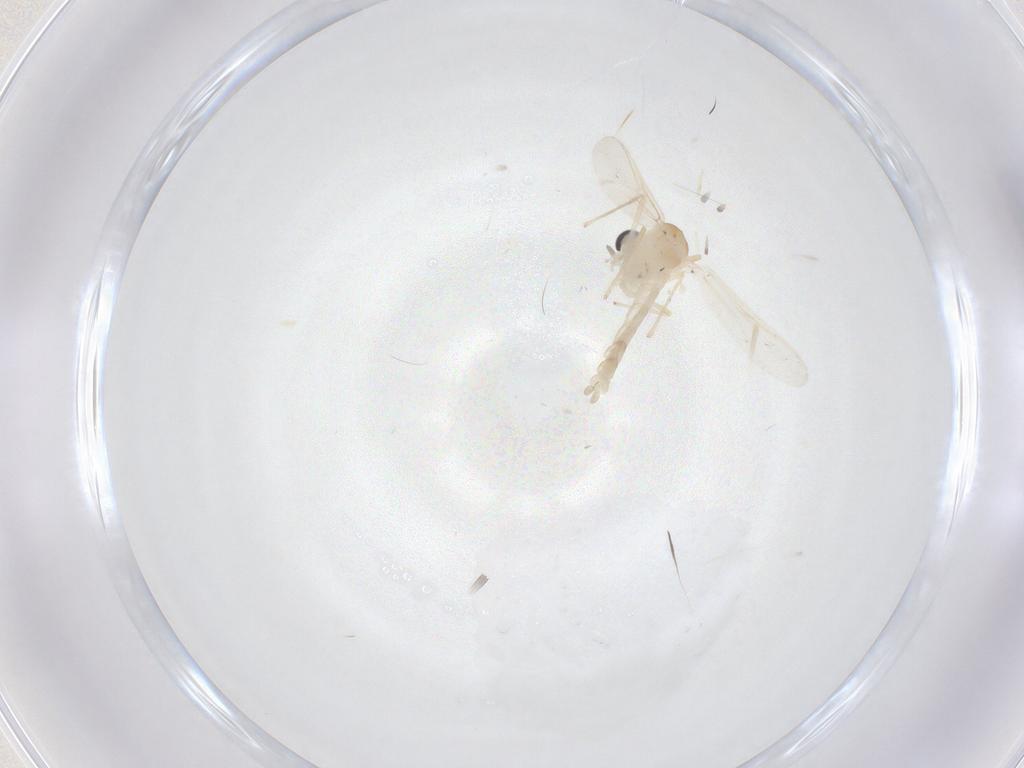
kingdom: Animalia
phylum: Arthropoda
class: Insecta
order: Diptera
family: Chironomidae
